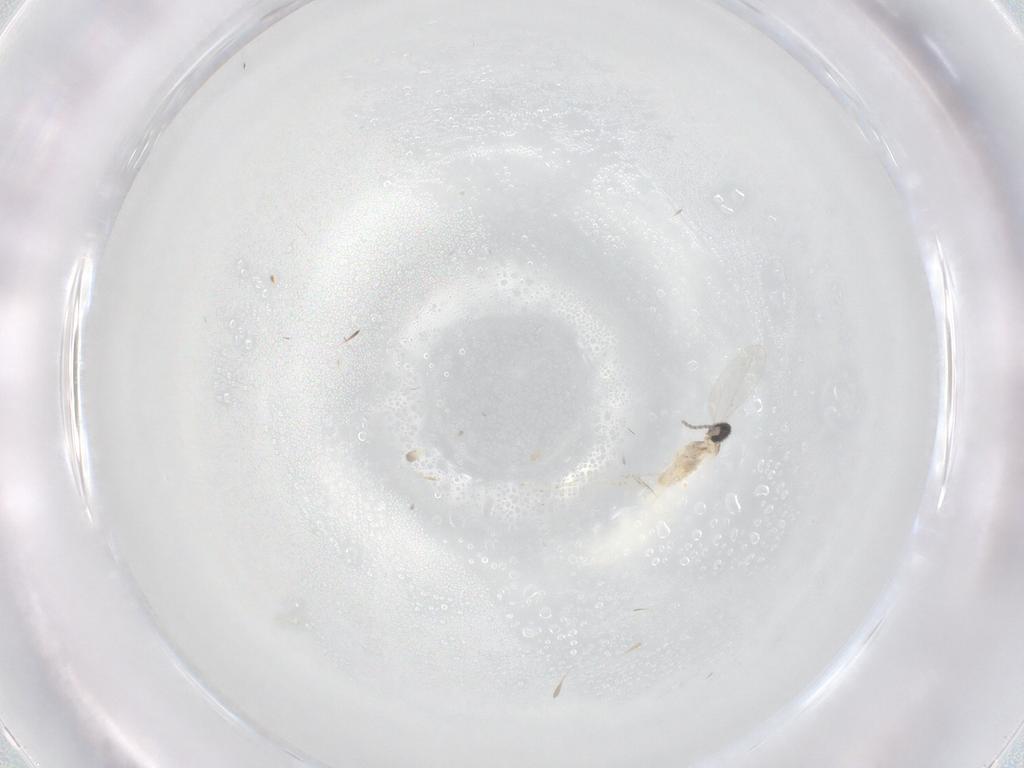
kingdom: Animalia
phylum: Arthropoda
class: Insecta
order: Diptera
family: Cecidomyiidae
